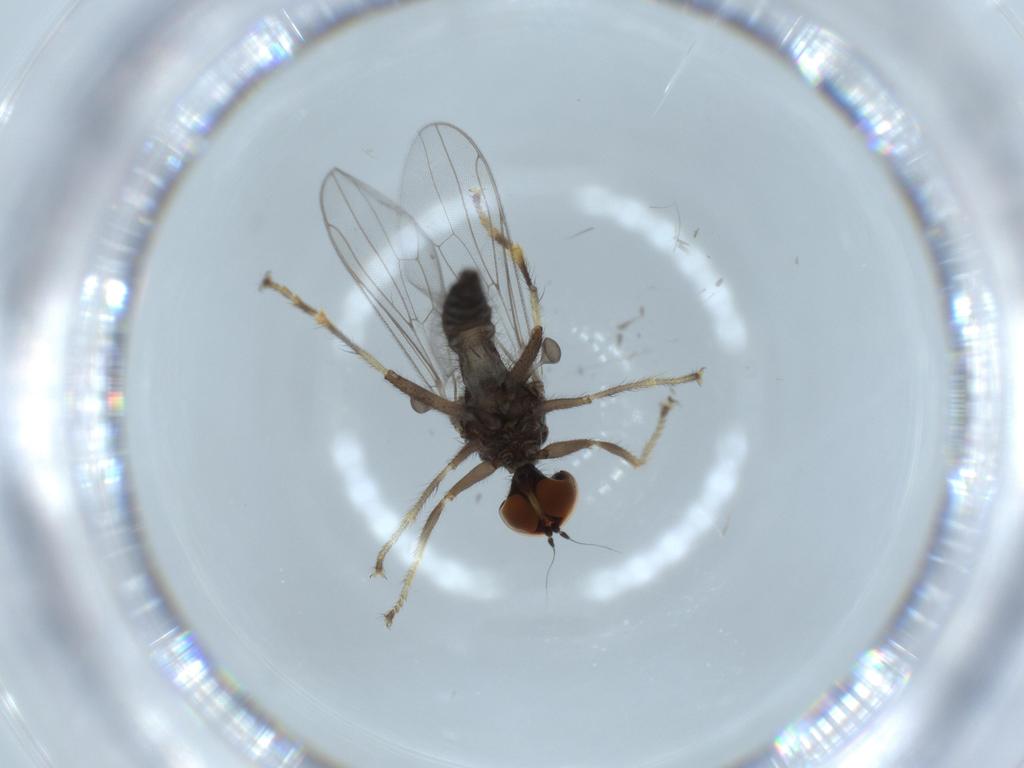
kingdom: Animalia
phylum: Arthropoda
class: Insecta
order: Diptera
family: Hybotidae
